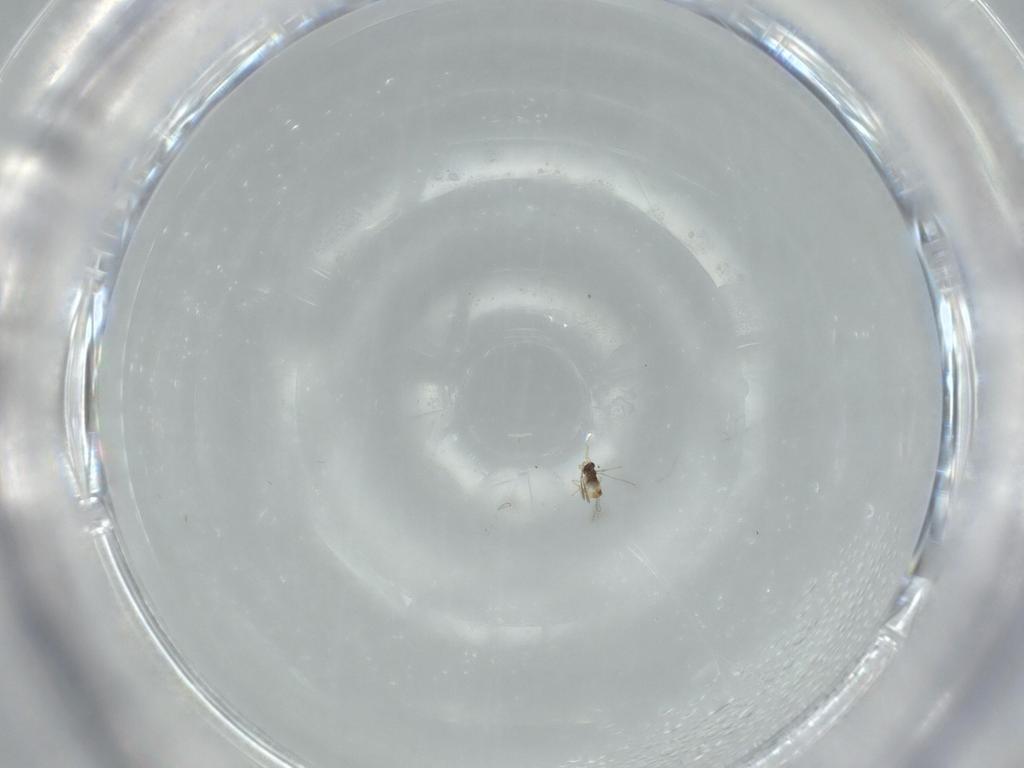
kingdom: Animalia
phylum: Arthropoda
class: Insecta
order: Hymenoptera
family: Mymaridae
